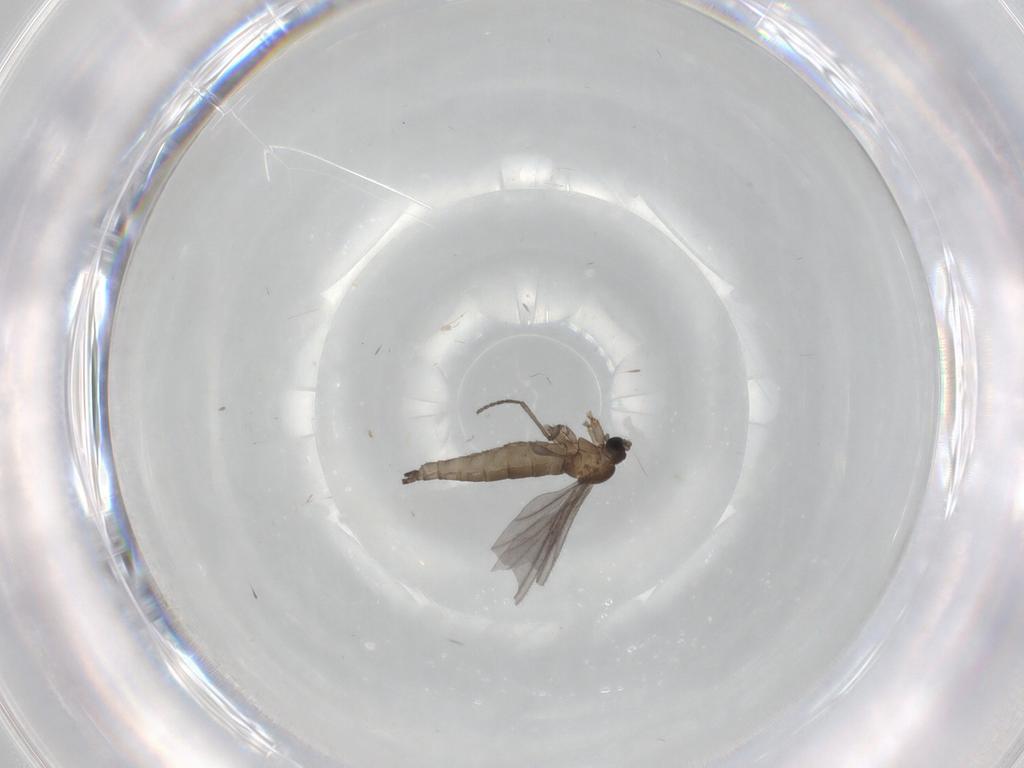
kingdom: Animalia
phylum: Arthropoda
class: Insecta
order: Diptera
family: Sciaridae
